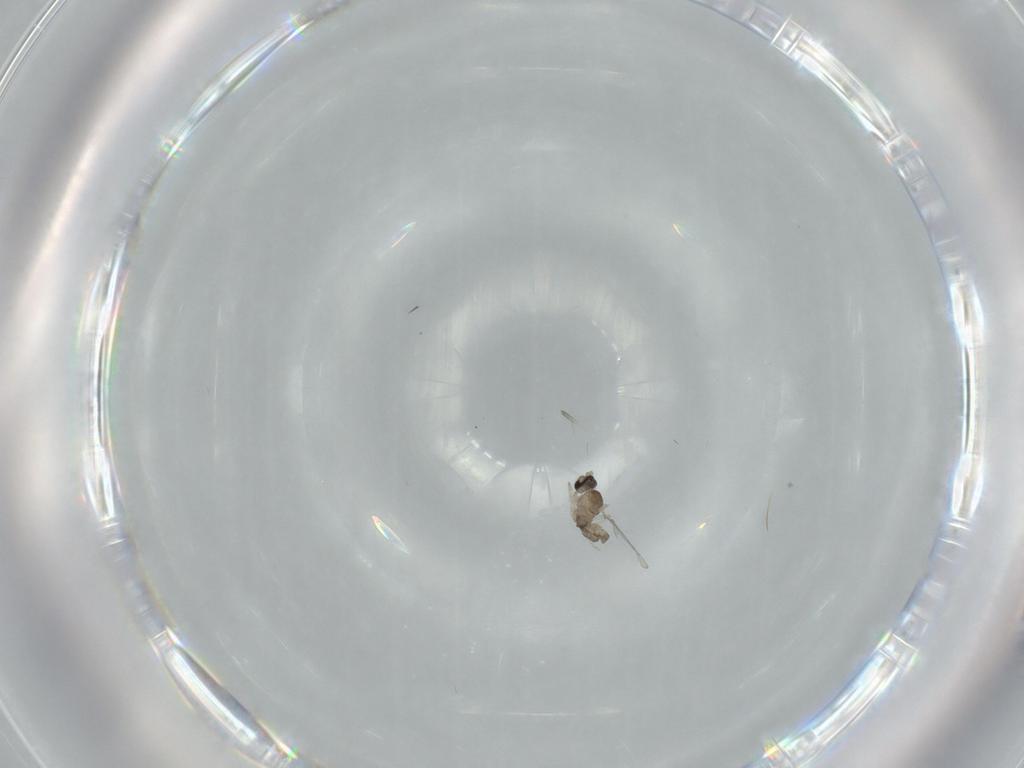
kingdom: Animalia
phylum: Arthropoda
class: Insecta
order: Diptera
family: Cecidomyiidae
